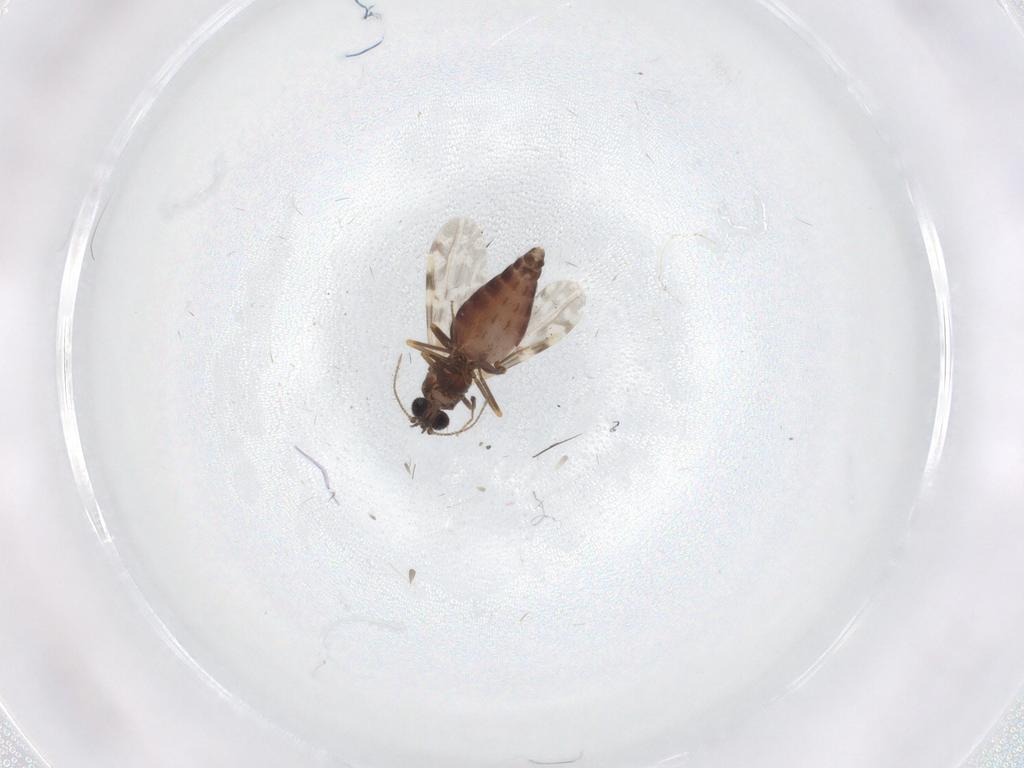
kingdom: Animalia
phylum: Arthropoda
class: Insecta
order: Diptera
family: Ceratopogonidae
